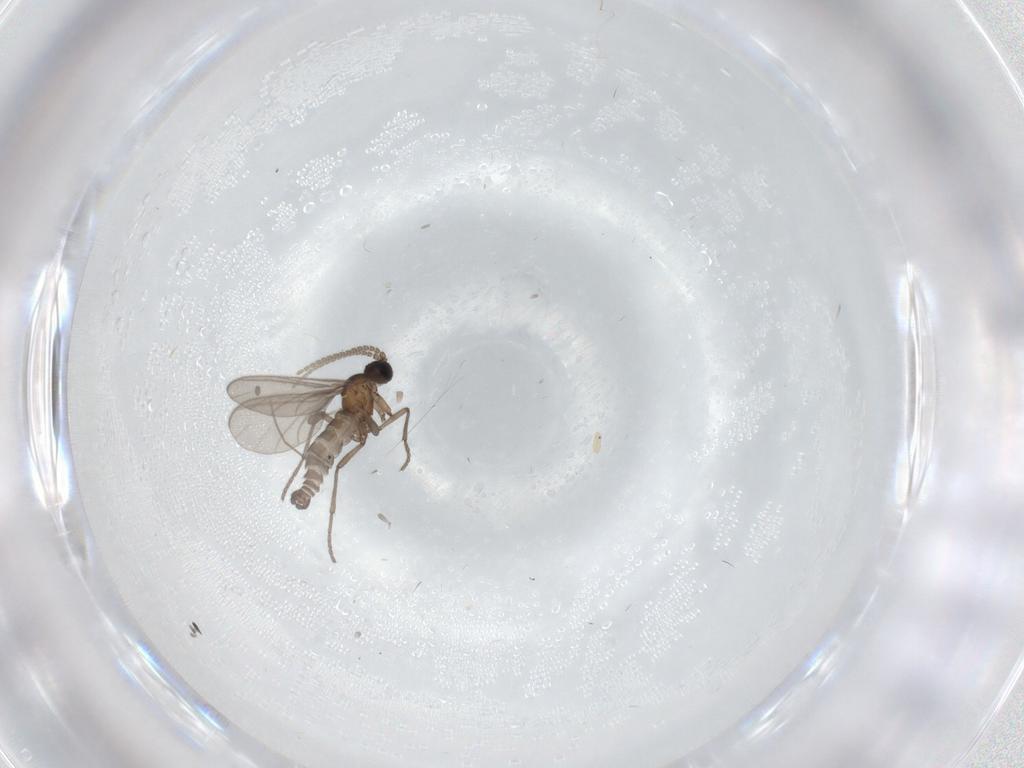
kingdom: Animalia
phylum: Arthropoda
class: Insecta
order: Diptera
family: Sciaridae
